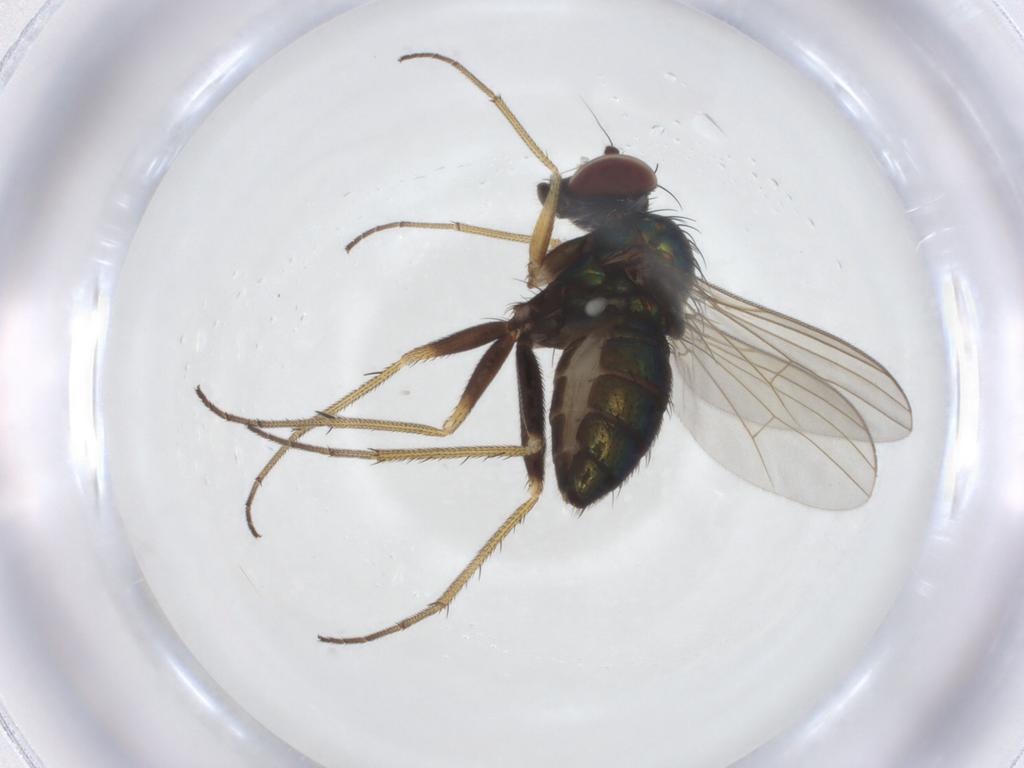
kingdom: Animalia
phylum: Arthropoda
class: Insecta
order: Diptera
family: Dolichopodidae
